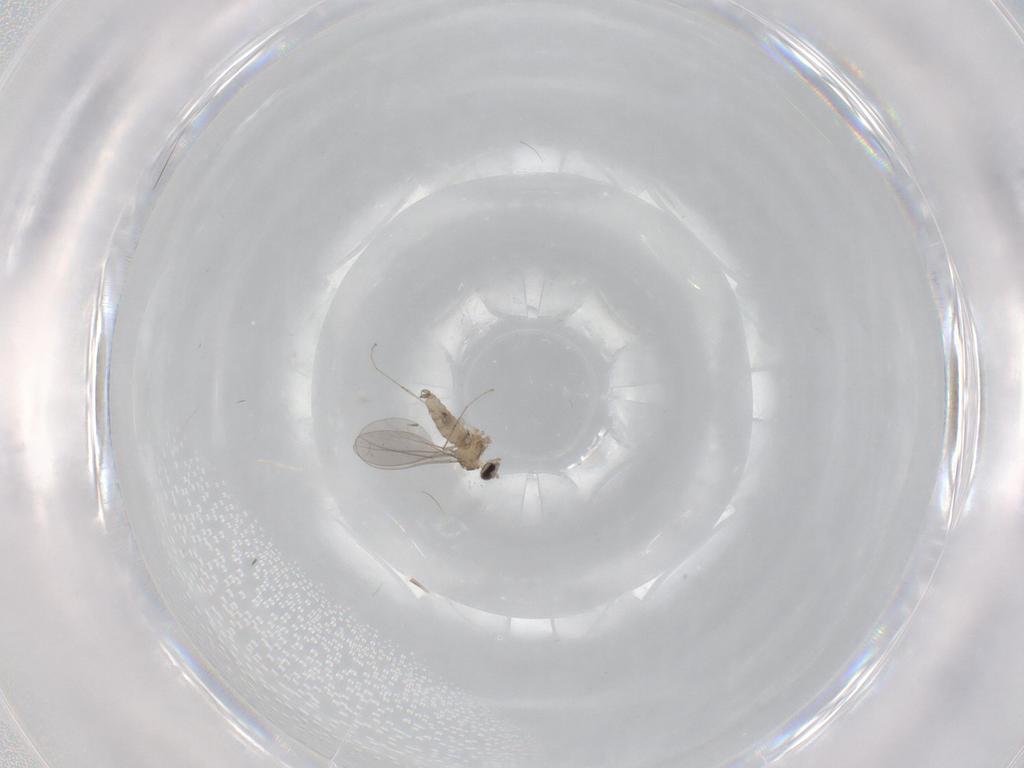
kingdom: Animalia
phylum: Arthropoda
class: Insecta
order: Diptera
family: Cecidomyiidae
